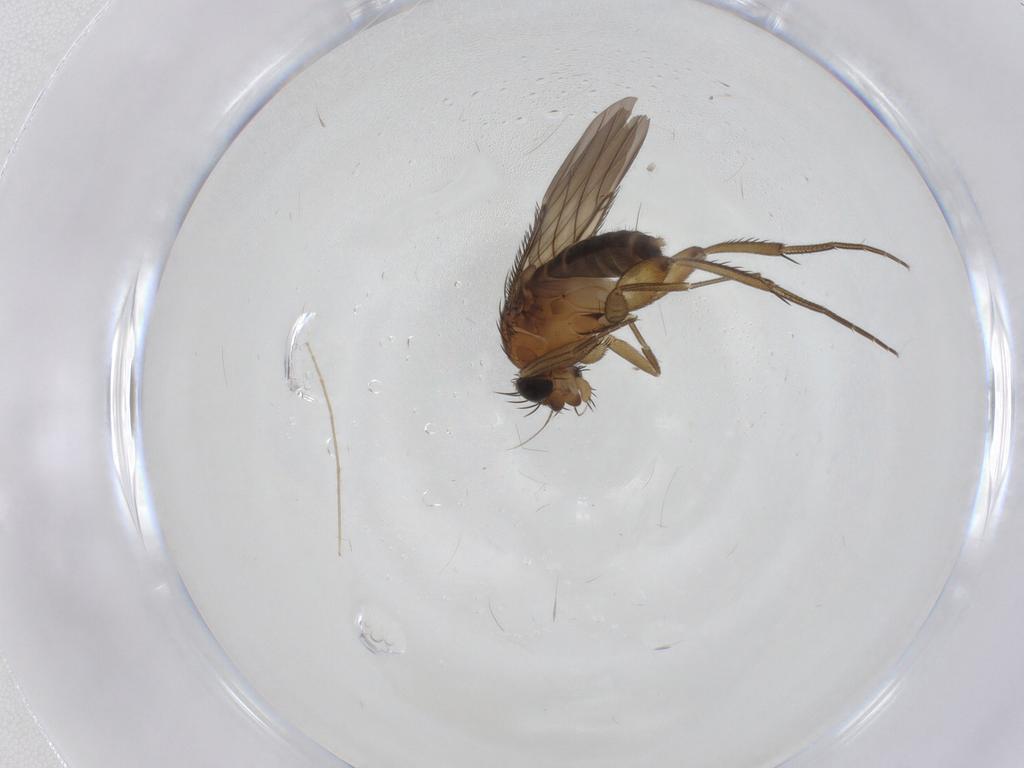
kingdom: Animalia
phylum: Arthropoda
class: Insecta
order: Diptera
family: Phoridae
